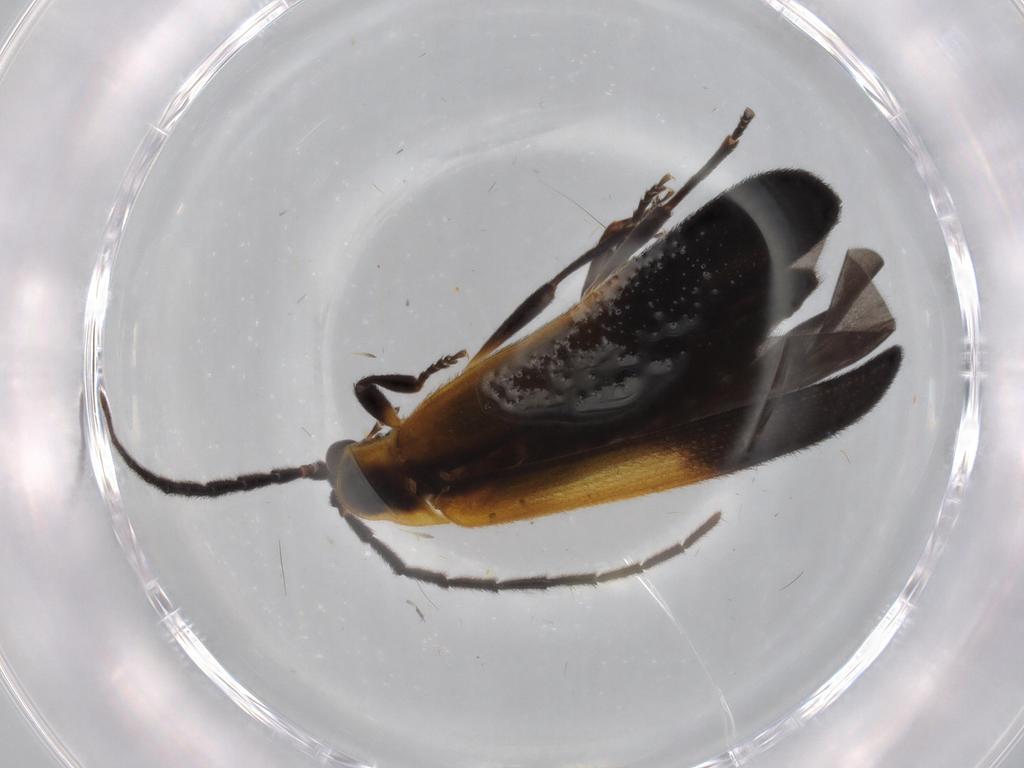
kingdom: Animalia
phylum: Arthropoda
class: Insecta
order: Coleoptera
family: Lycidae
